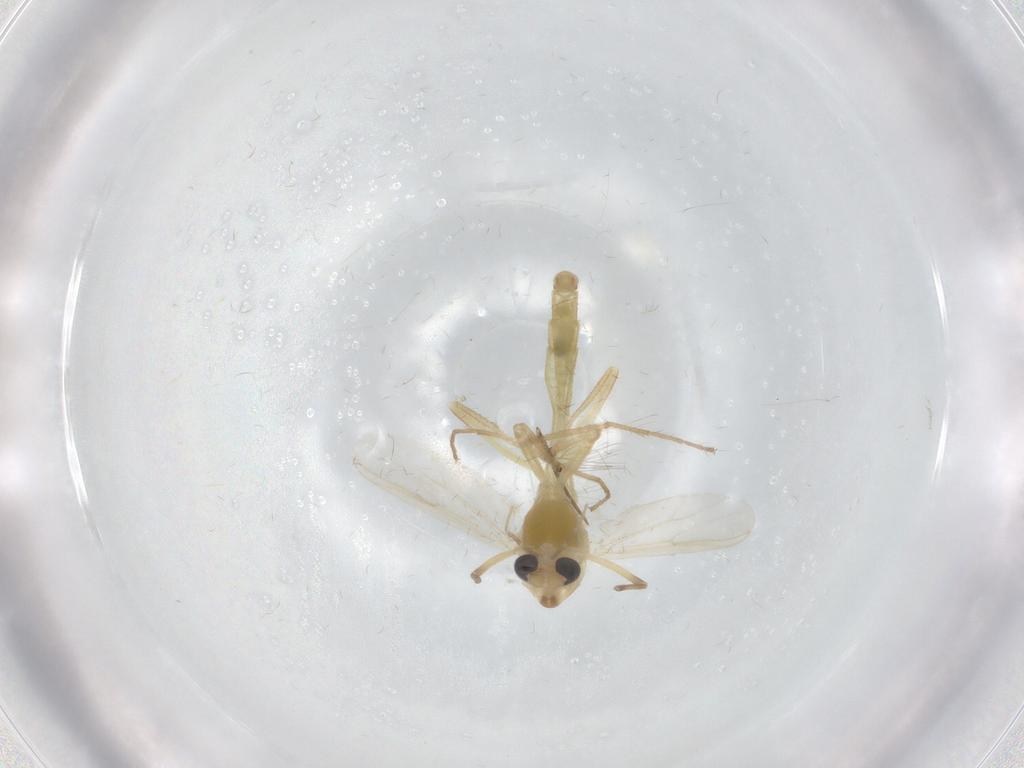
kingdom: Animalia
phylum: Arthropoda
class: Insecta
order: Diptera
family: Chironomidae
